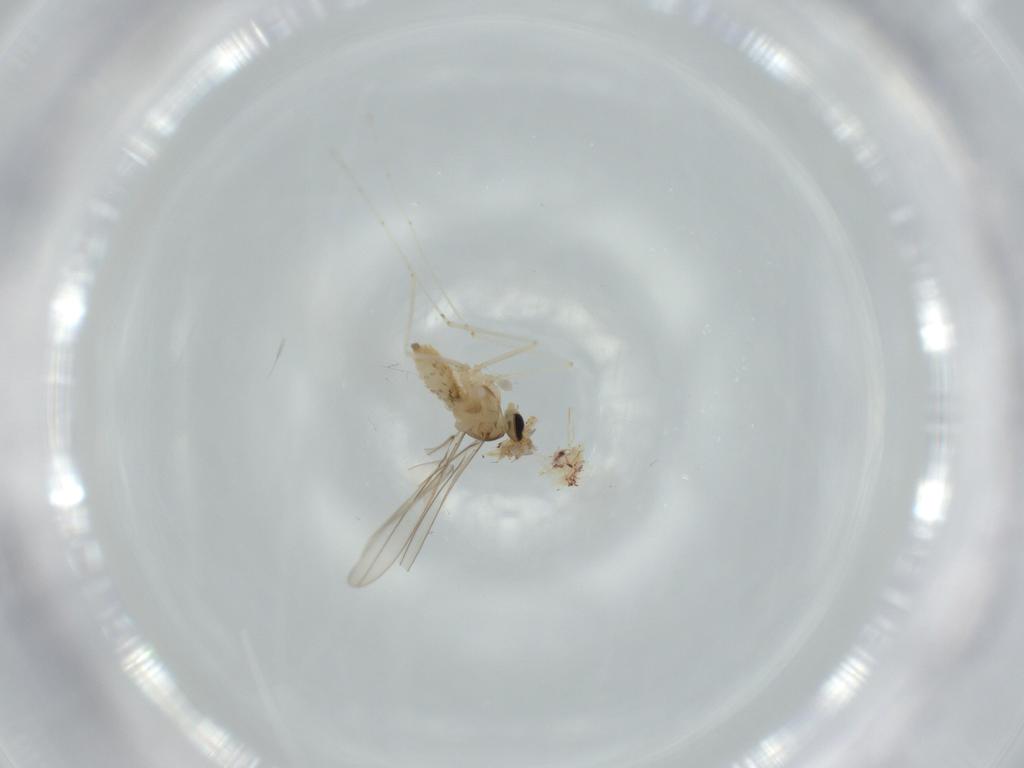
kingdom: Animalia
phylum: Arthropoda
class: Insecta
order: Diptera
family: Cecidomyiidae
